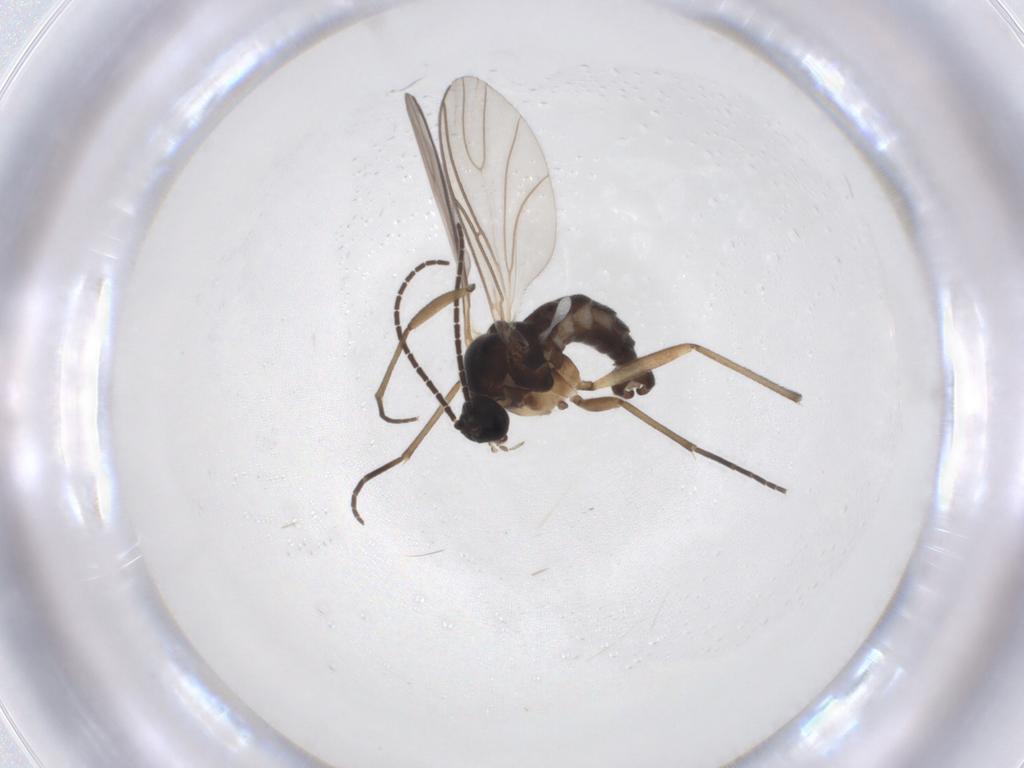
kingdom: Animalia
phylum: Arthropoda
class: Insecta
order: Diptera
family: Sciaridae
